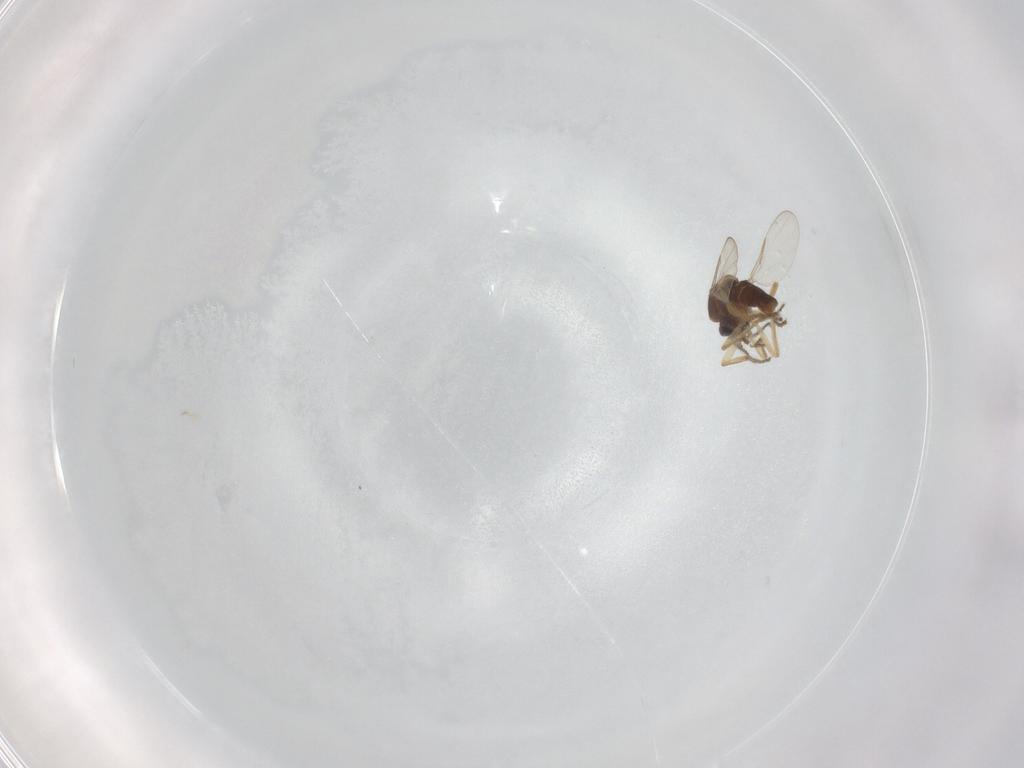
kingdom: Animalia
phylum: Arthropoda
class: Insecta
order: Diptera
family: Ceratopogonidae
